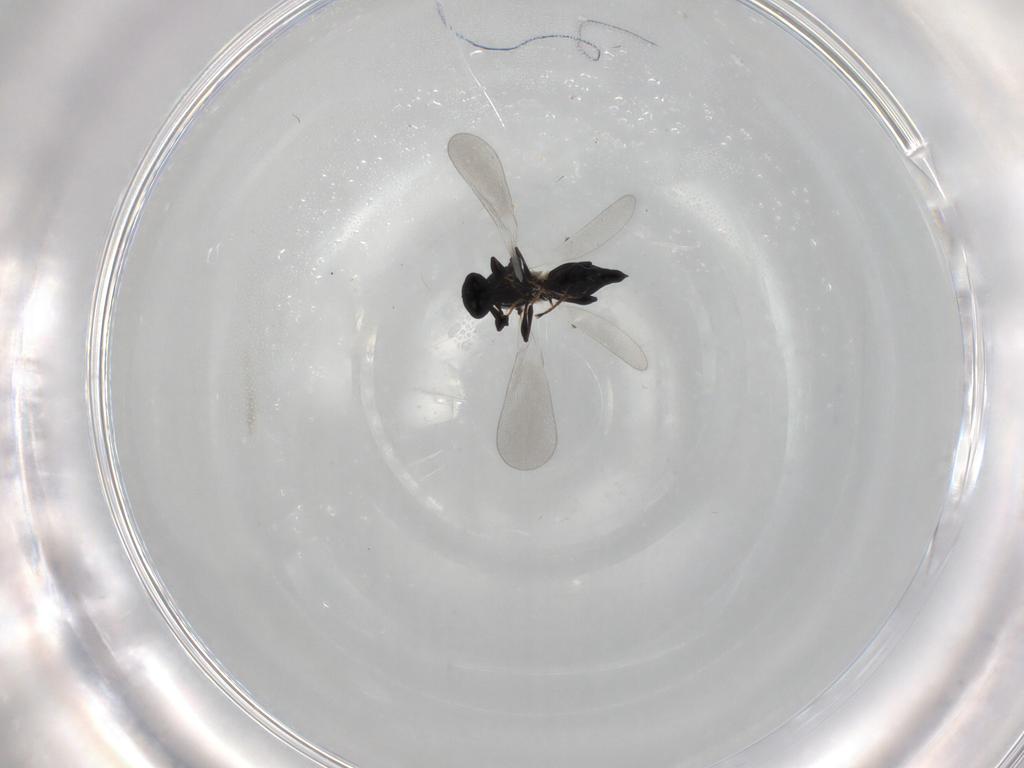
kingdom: Animalia
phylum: Arthropoda
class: Insecta
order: Hymenoptera
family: Platygastridae
